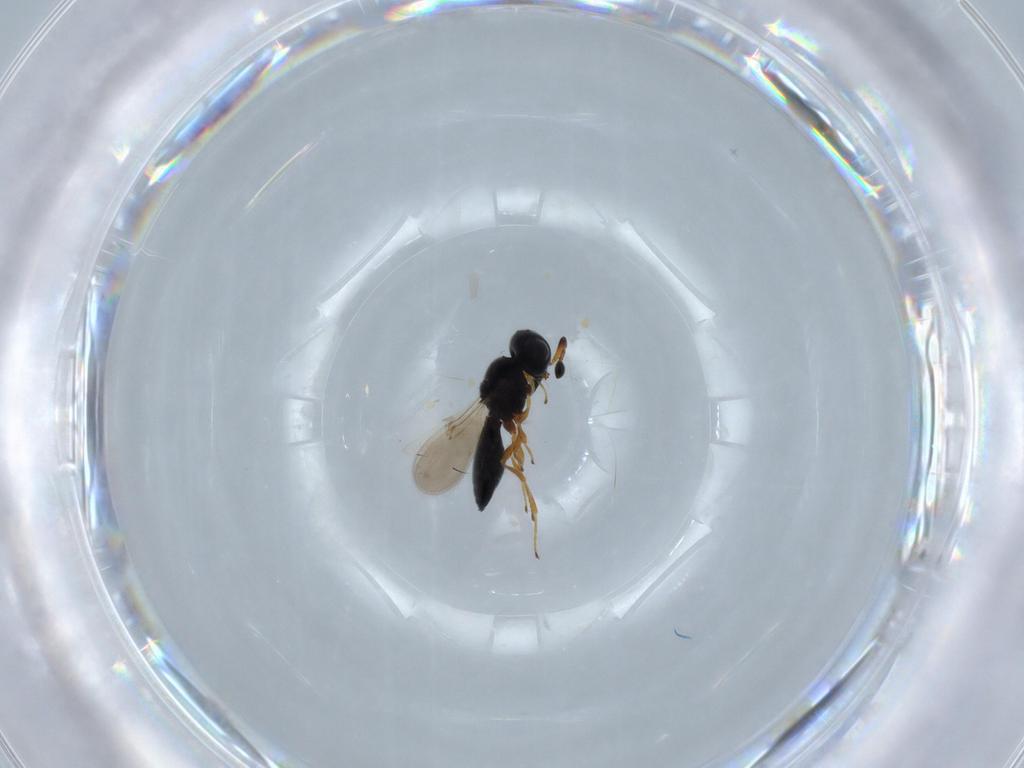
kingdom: Animalia
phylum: Arthropoda
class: Insecta
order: Hymenoptera
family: Scelionidae
